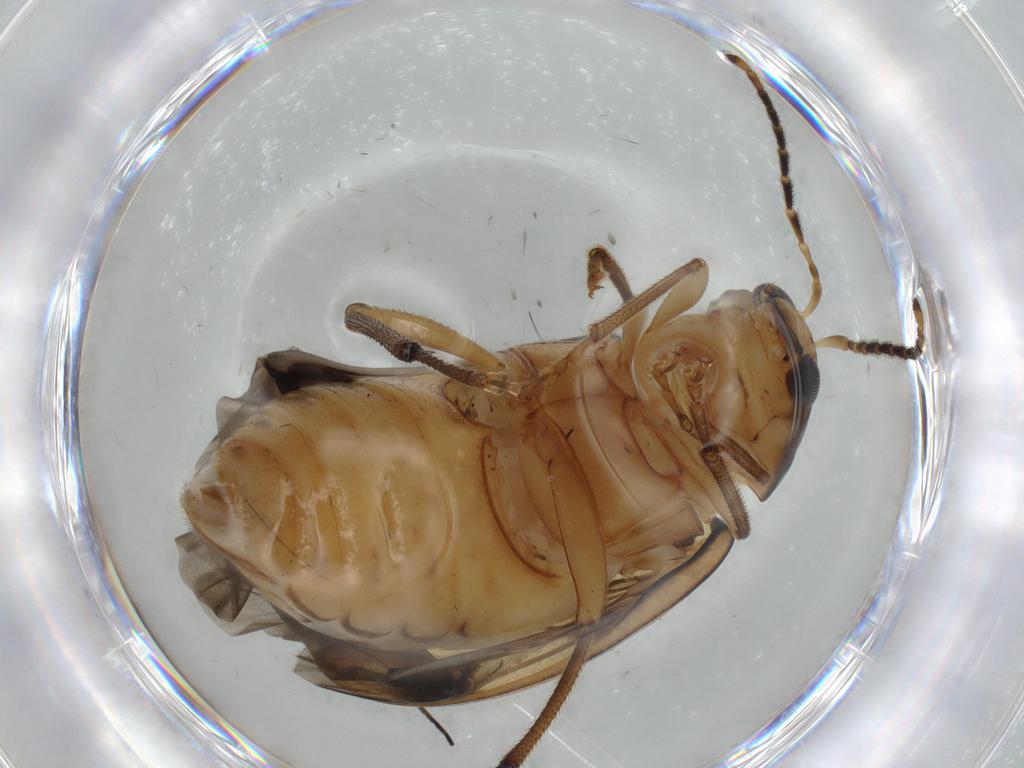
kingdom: Animalia
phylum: Arthropoda
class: Insecta
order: Coleoptera
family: Chrysomelidae
